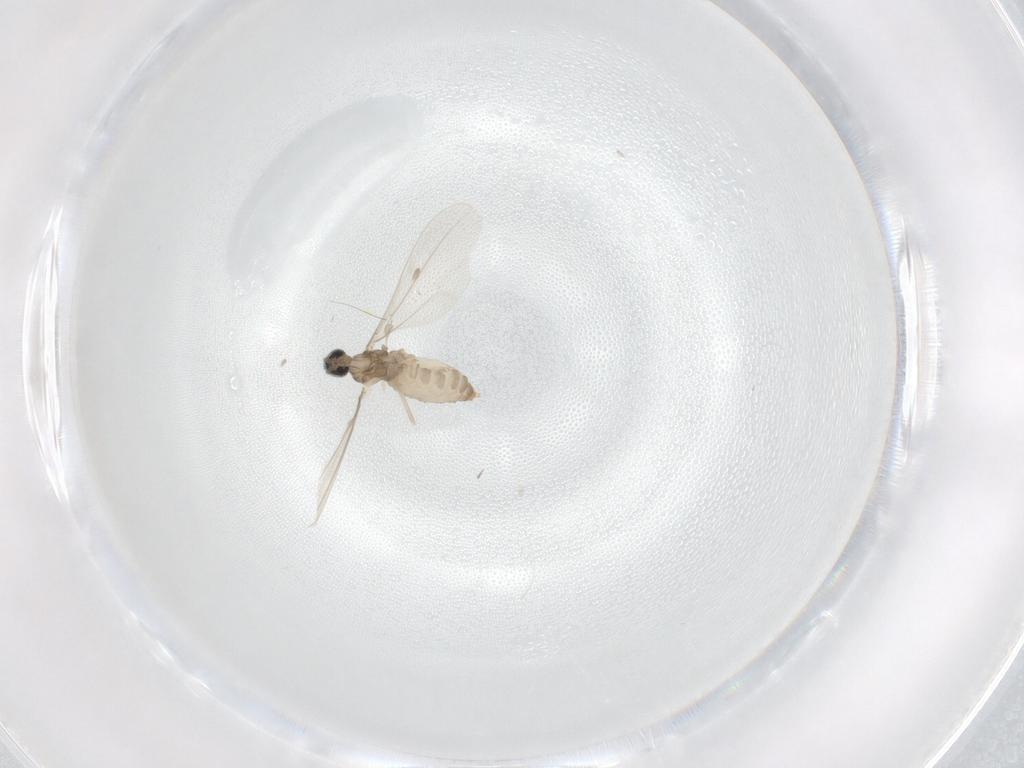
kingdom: Animalia
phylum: Arthropoda
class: Insecta
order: Diptera
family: Cecidomyiidae
